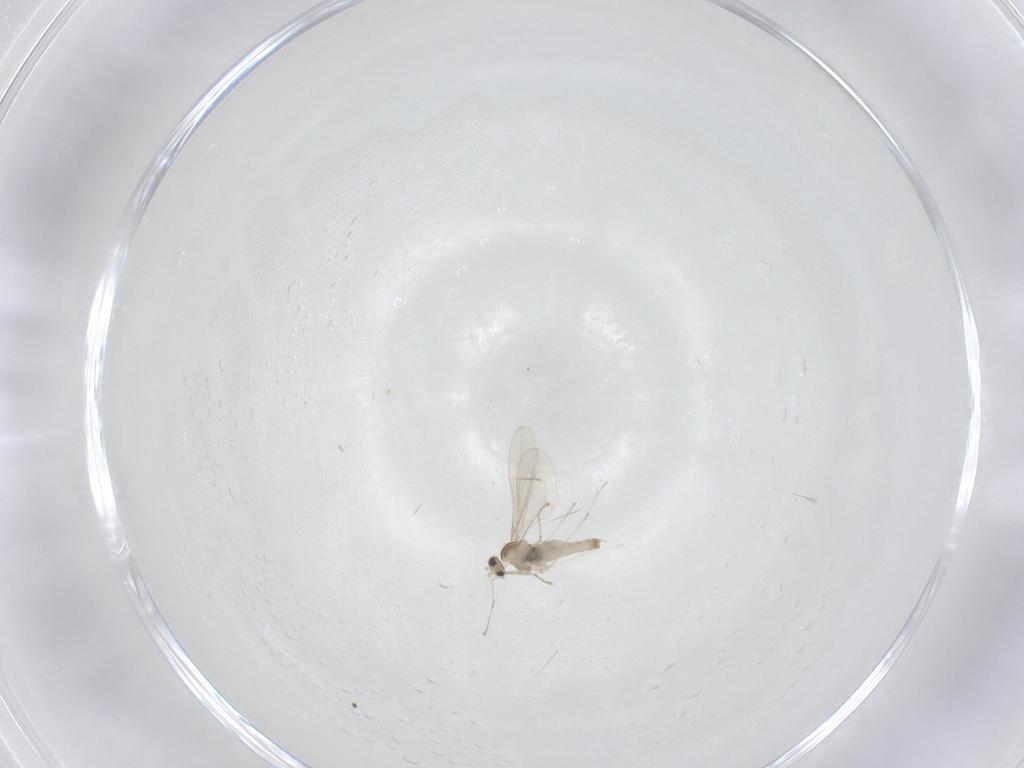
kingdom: Animalia
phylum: Arthropoda
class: Insecta
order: Diptera
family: Cecidomyiidae
